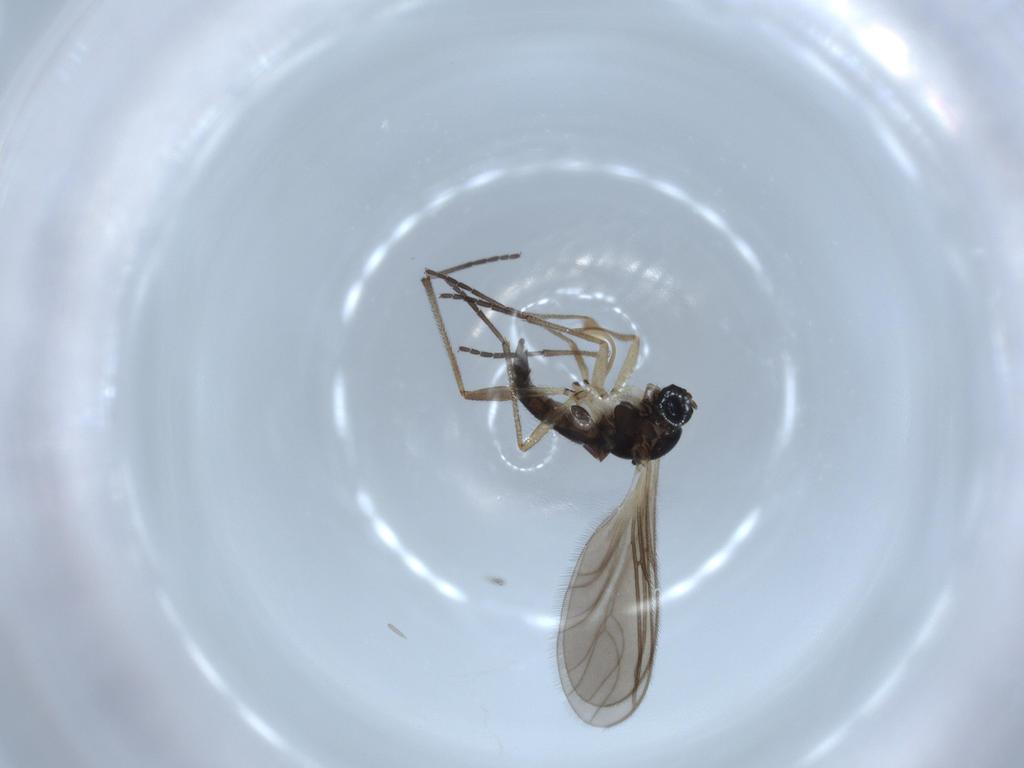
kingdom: Animalia
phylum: Arthropoda
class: Insecta
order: Diptera
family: Sciaridae
